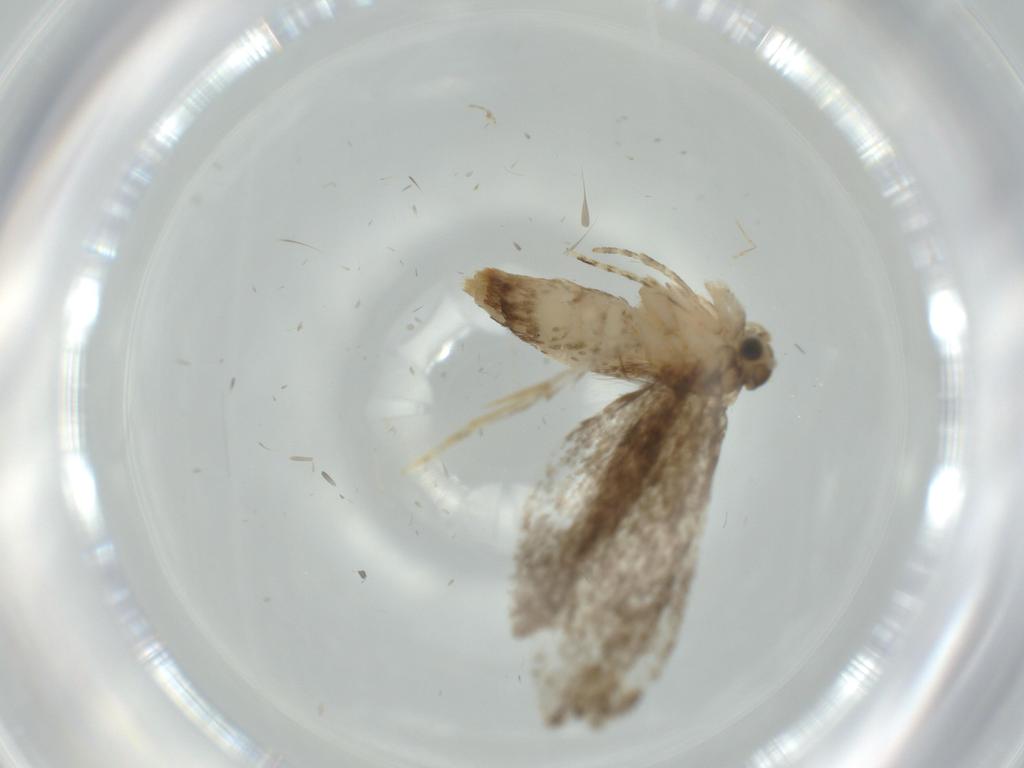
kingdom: Animalia
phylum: Arthropoda
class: Insecta
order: Lepidoptera
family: Tineidae
